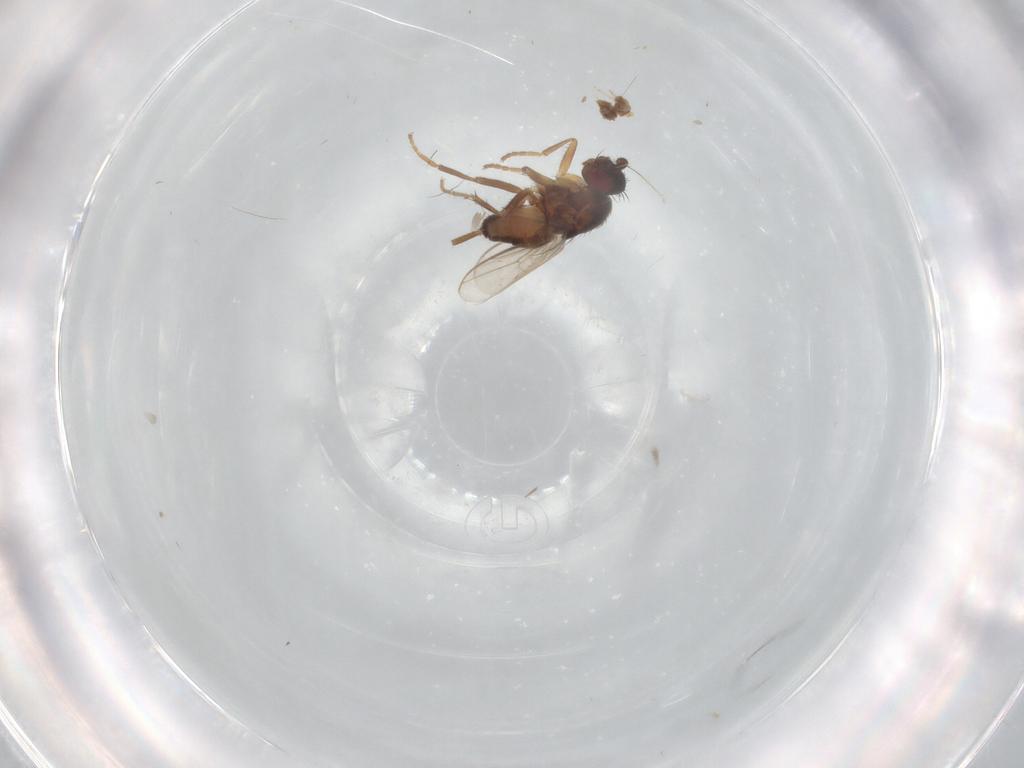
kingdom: Animalia
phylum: Arthropoda
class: Insecta
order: Diptera
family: Cecidomyiidae
